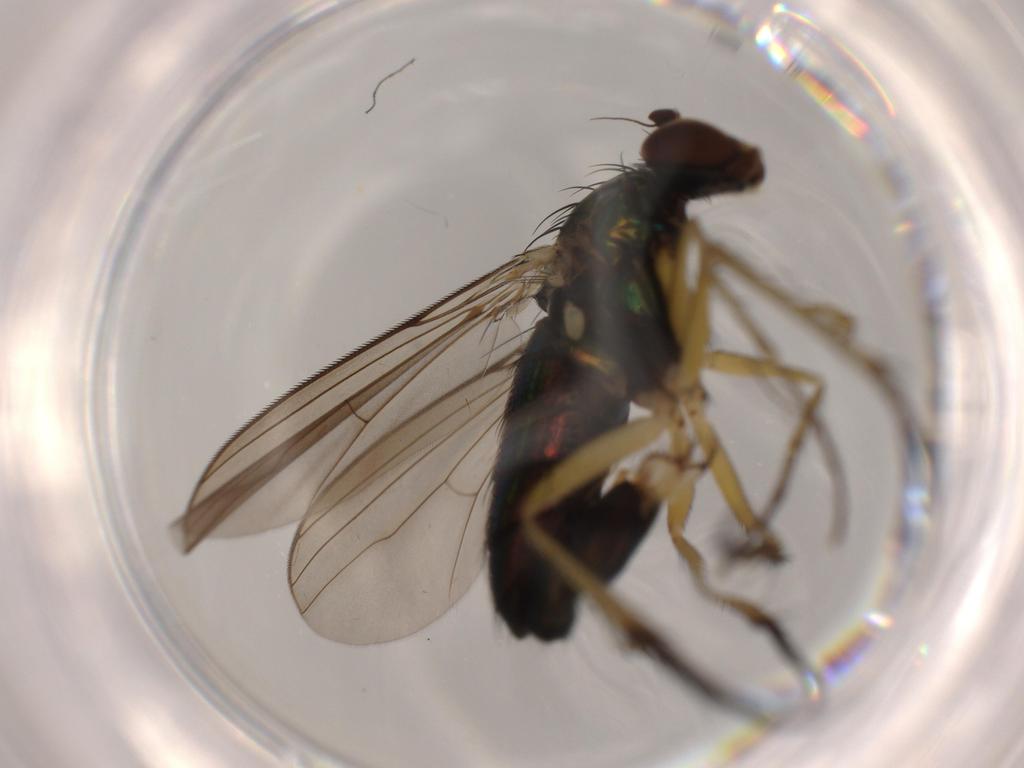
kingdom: Animalia
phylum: Arthropoda
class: Insecta
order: Diptera
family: Dolichopodidae
